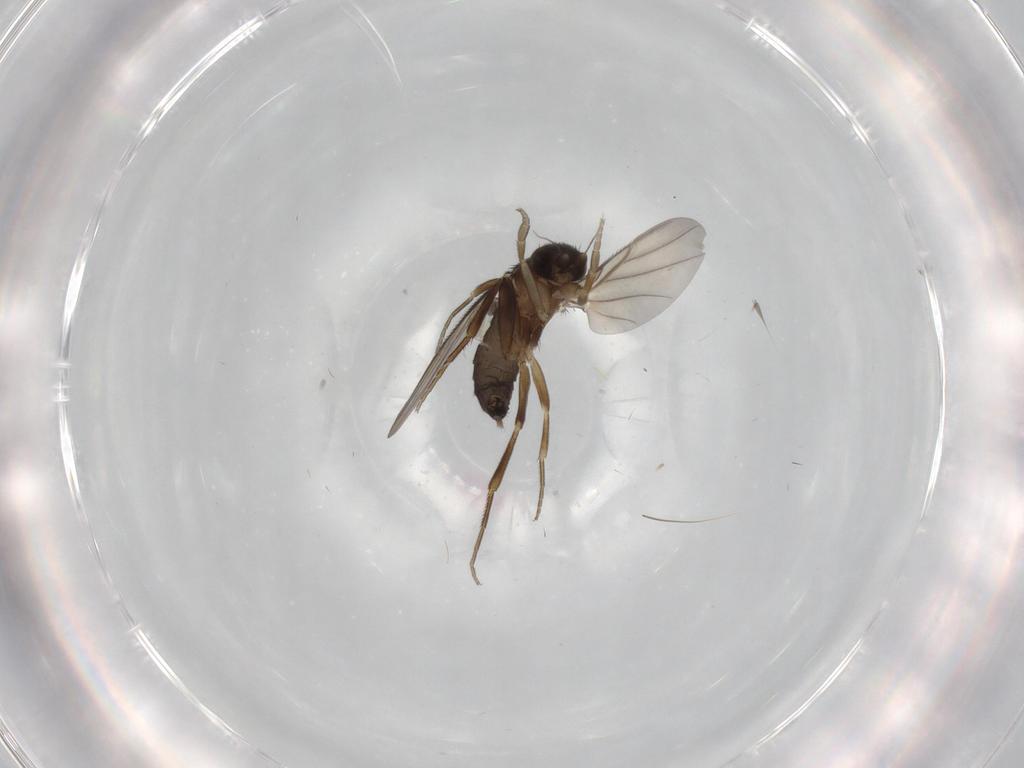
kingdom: Animalia
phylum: Arthropoda
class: Insecta
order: Diptera
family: Phoridae
